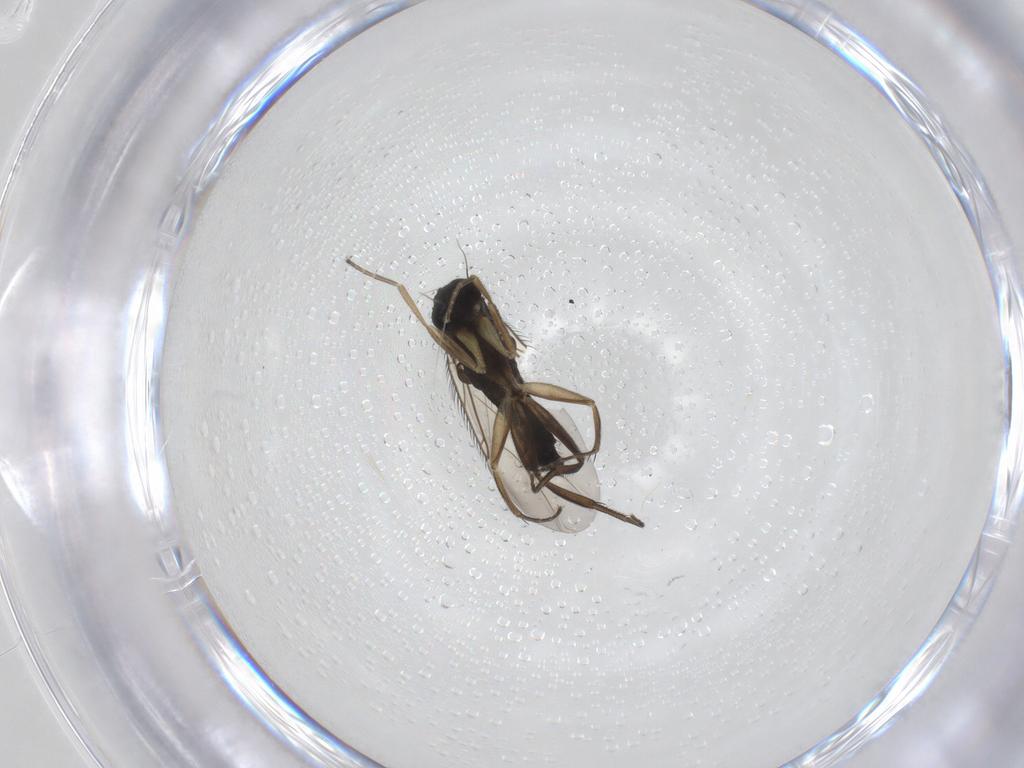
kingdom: Animalia
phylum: Arthropoda
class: Insecta
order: Diptera
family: Phoridae
